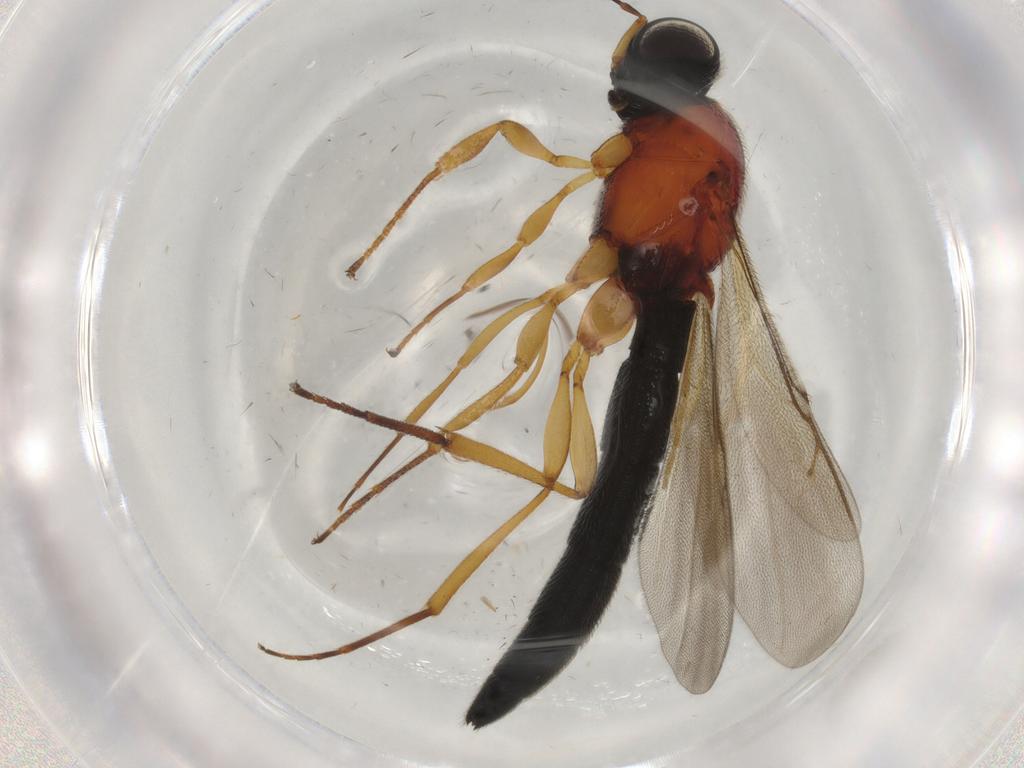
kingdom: Animalia
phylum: Arthropoda
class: Insecta
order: Hymenoptera
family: Scelionidae
